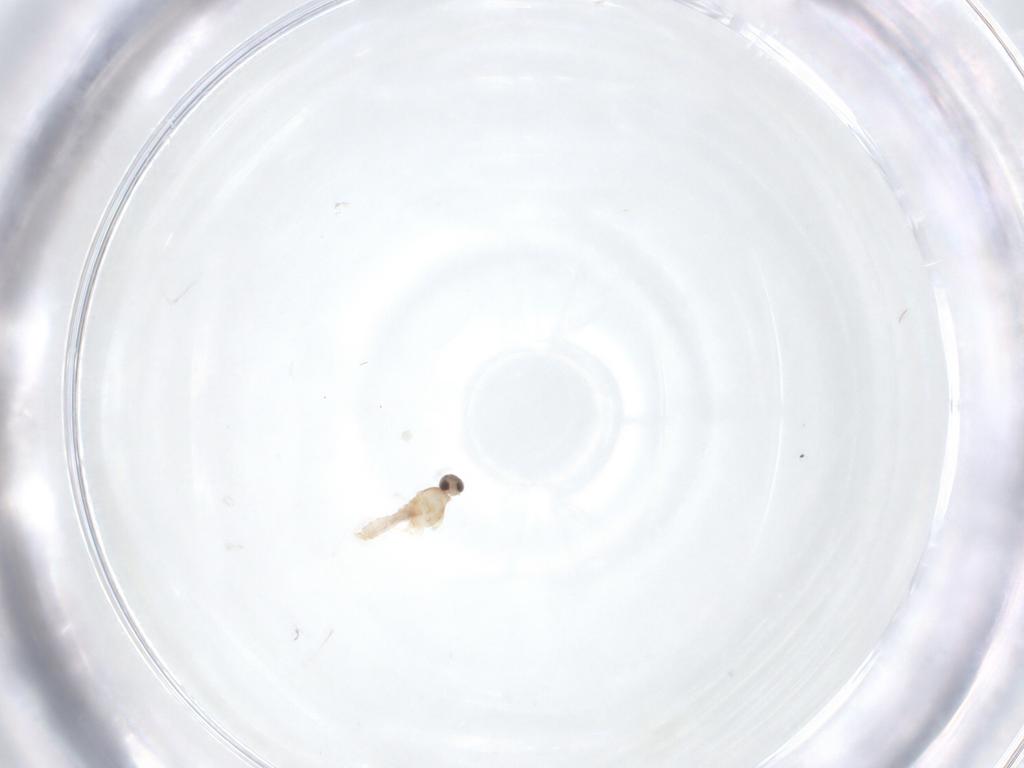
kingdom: Animalia
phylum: Arthropoda
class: Insecta
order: Diptera
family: Cecidomyiidae
